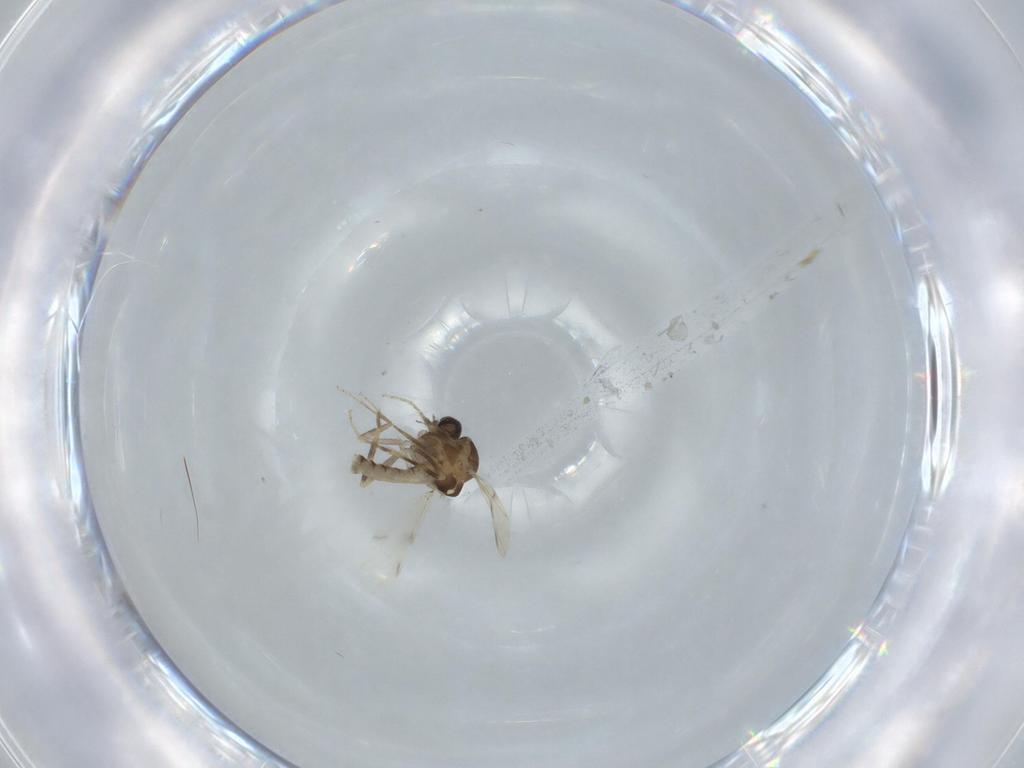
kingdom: Animalia
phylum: Arthropoda
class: Insecta
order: Diptera
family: Ceratopogonidae
